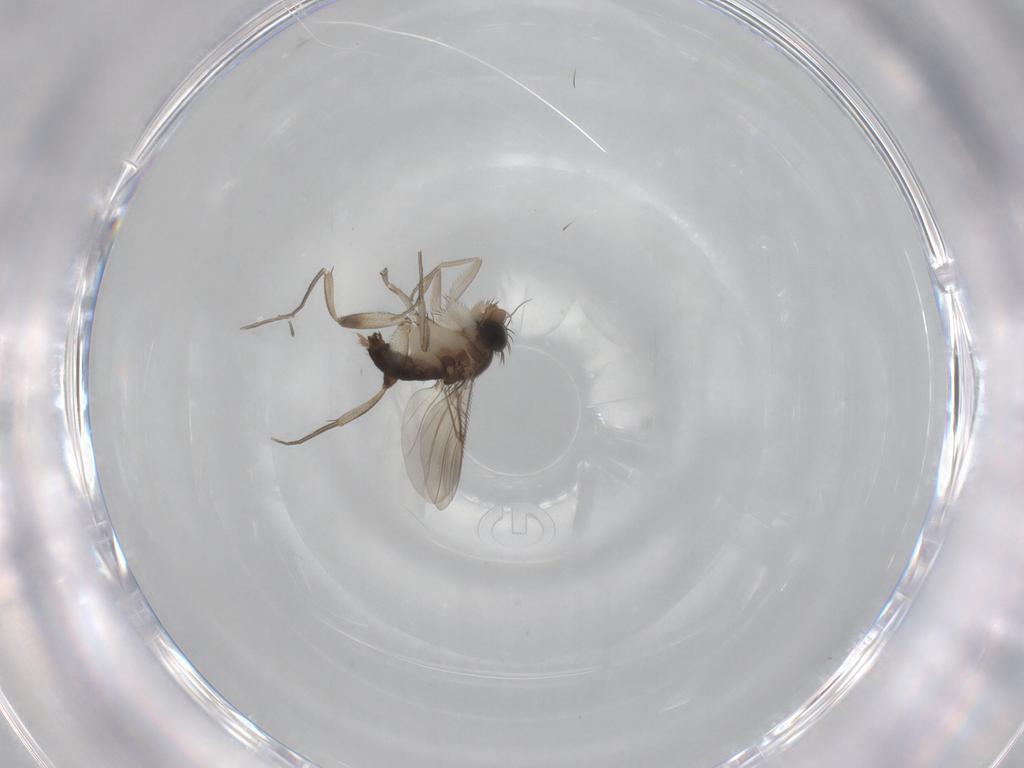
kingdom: Animalia
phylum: Arthropoda
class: Insecta
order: Diptera
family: Phoridae
